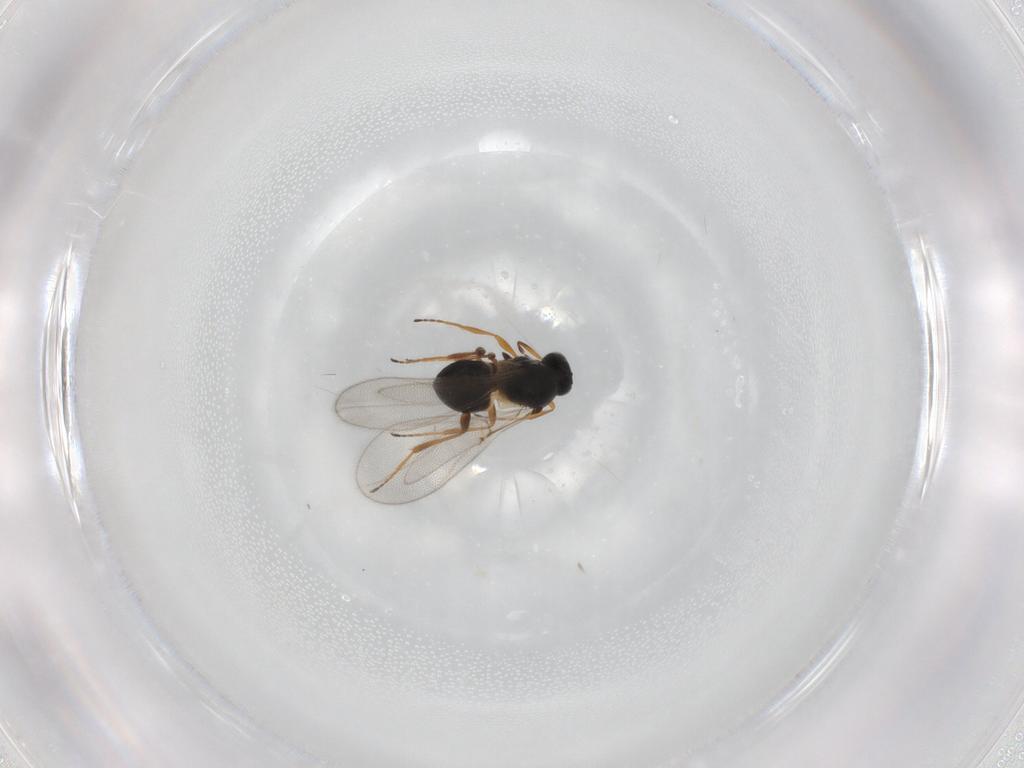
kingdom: Animalia
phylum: Arthropoda
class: Insecta
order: Hymenoptera
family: Platygastridae
